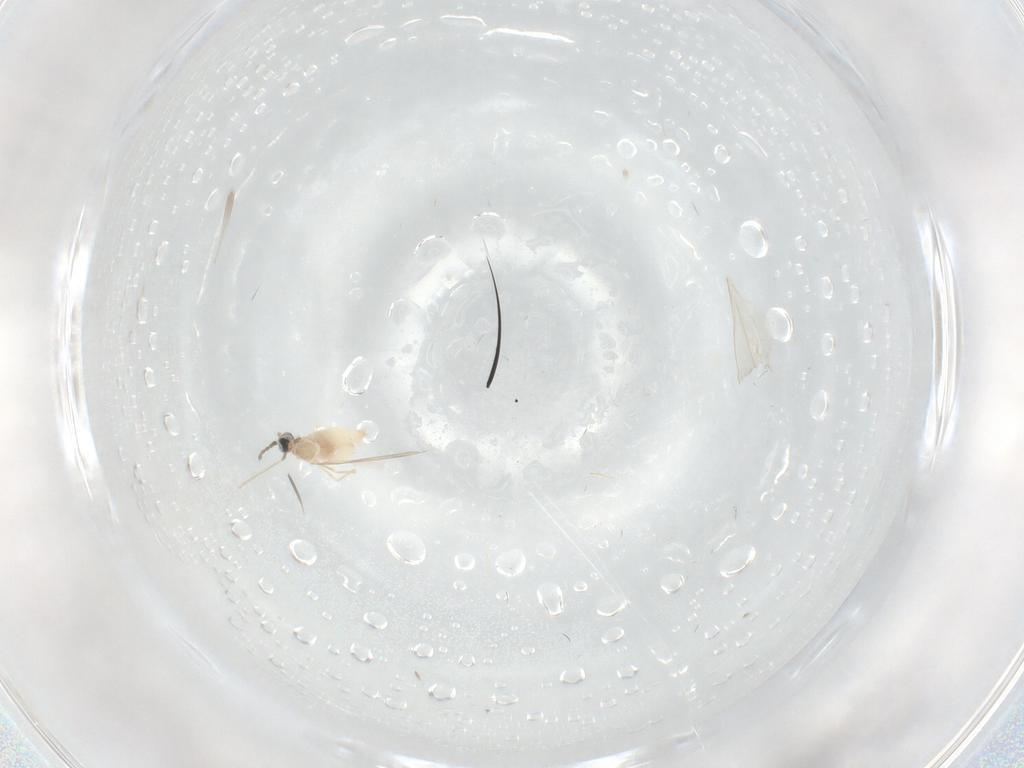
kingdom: Animalia
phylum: Arthropoda
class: Insecta
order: Diptera
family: Cecidomyiidae
